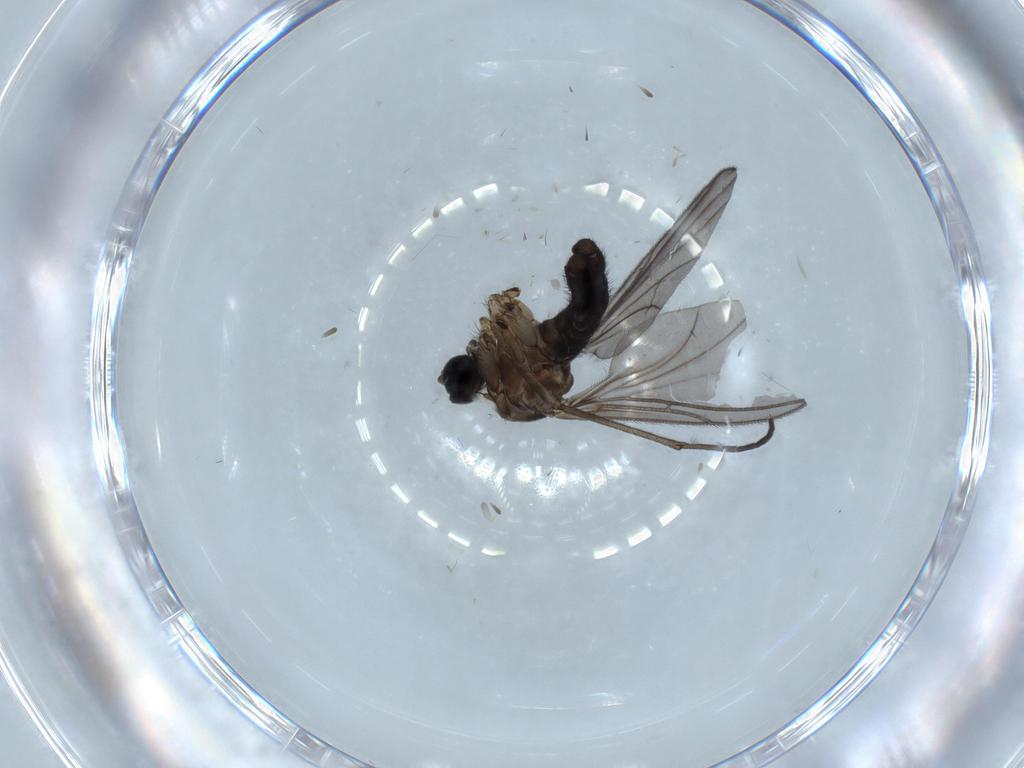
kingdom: Animalia
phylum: Arthropoda
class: Insecta
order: Diptera
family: Sciaridae
